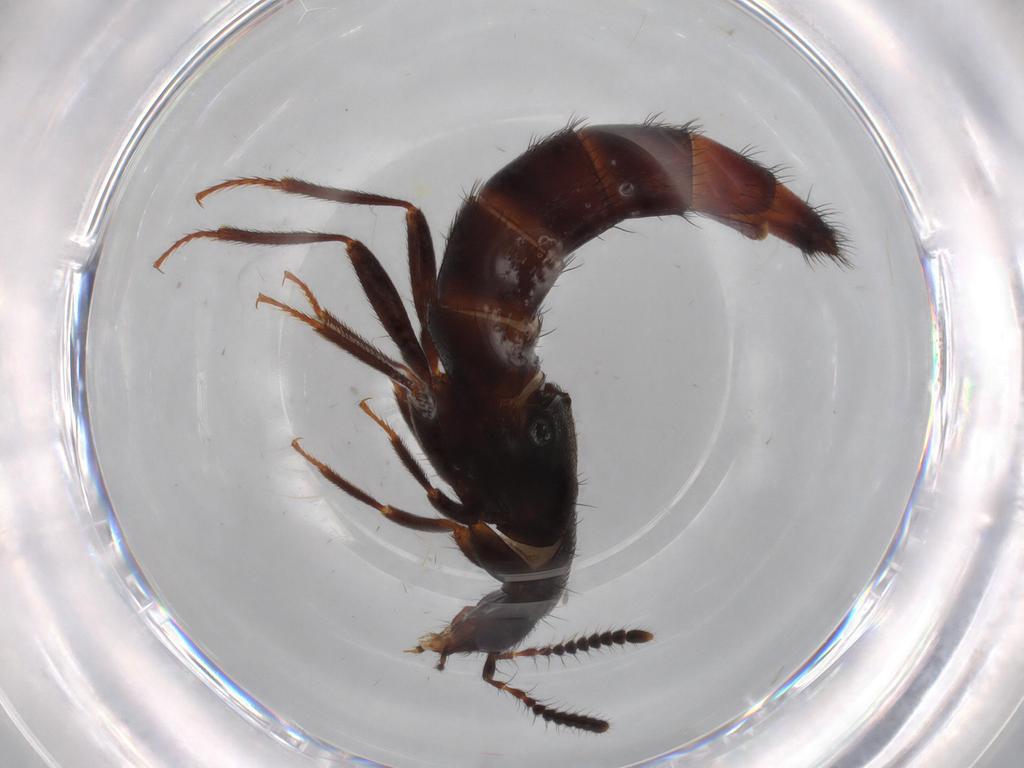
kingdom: Animalia
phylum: Arthropoda
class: Insecta
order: Coleoptera
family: Staphylinidae
